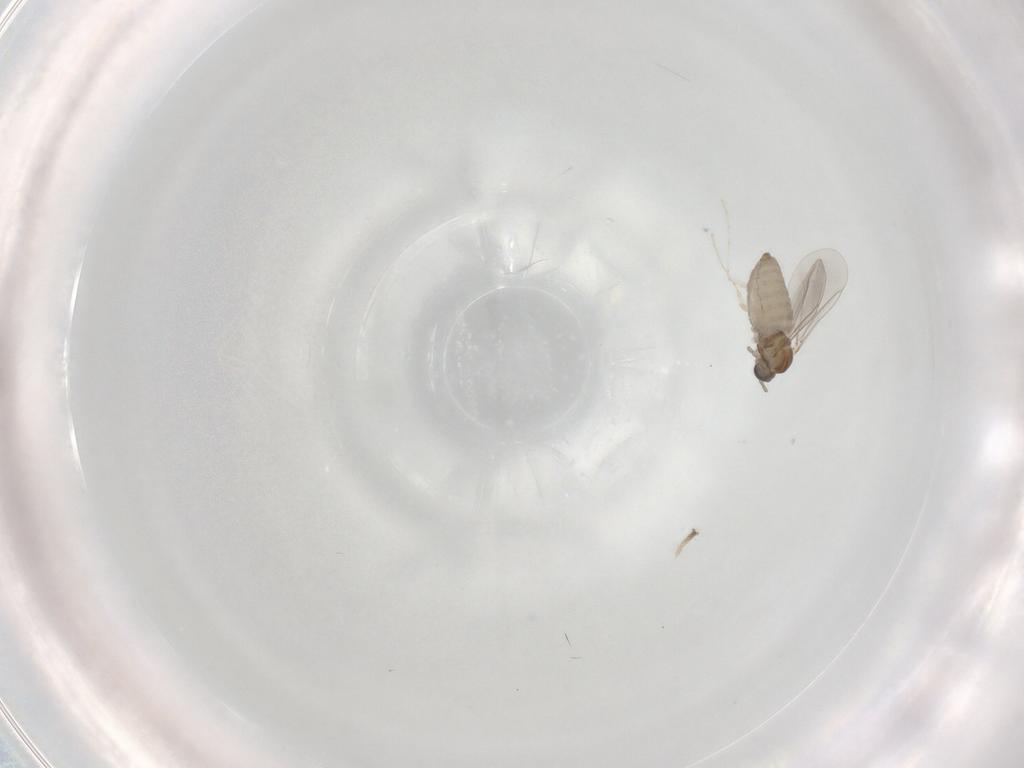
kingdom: Animalia
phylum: Arthropoda
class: Insecta
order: Diptera
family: Cecidomyiidae
